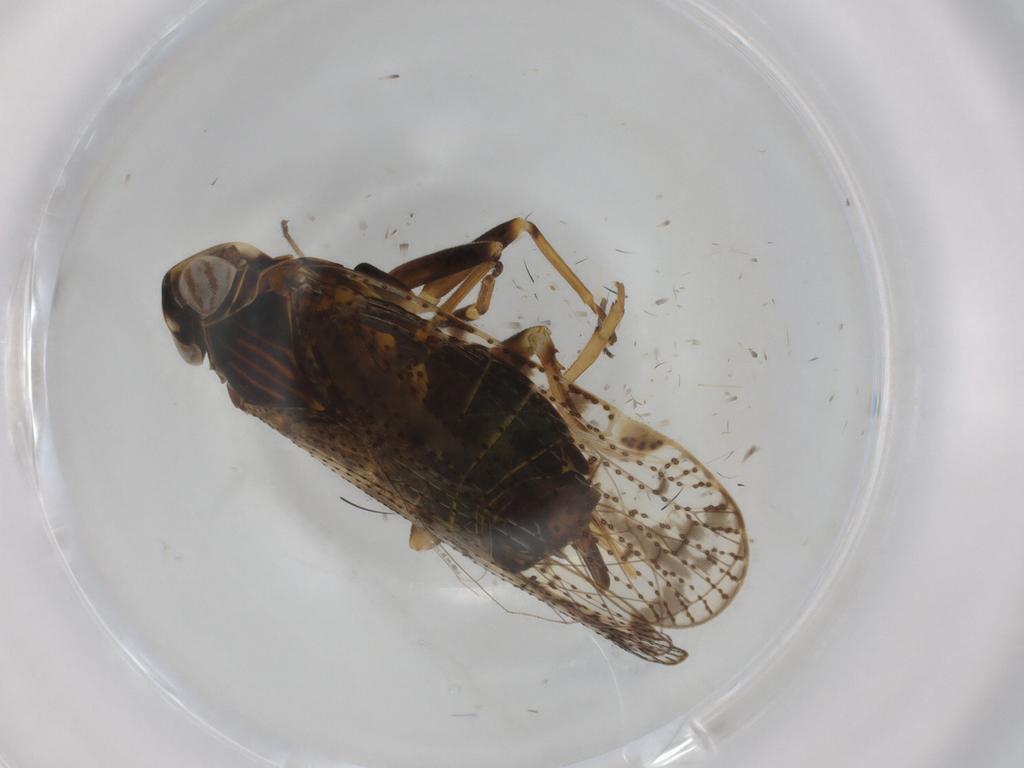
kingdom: Animalia
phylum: Arthropoda
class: Insecta
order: Hemiptera
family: Cixiidae
